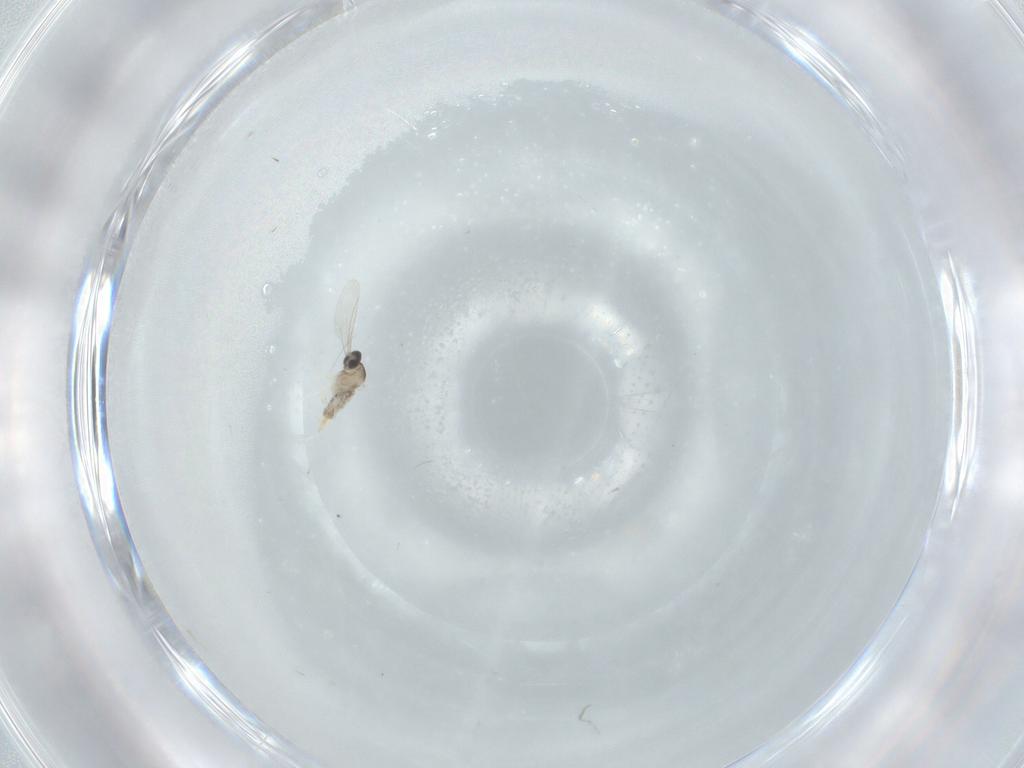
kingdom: Animalia
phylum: Arthropoda
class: Insecta
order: Diptera
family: Cecidomyiidae
